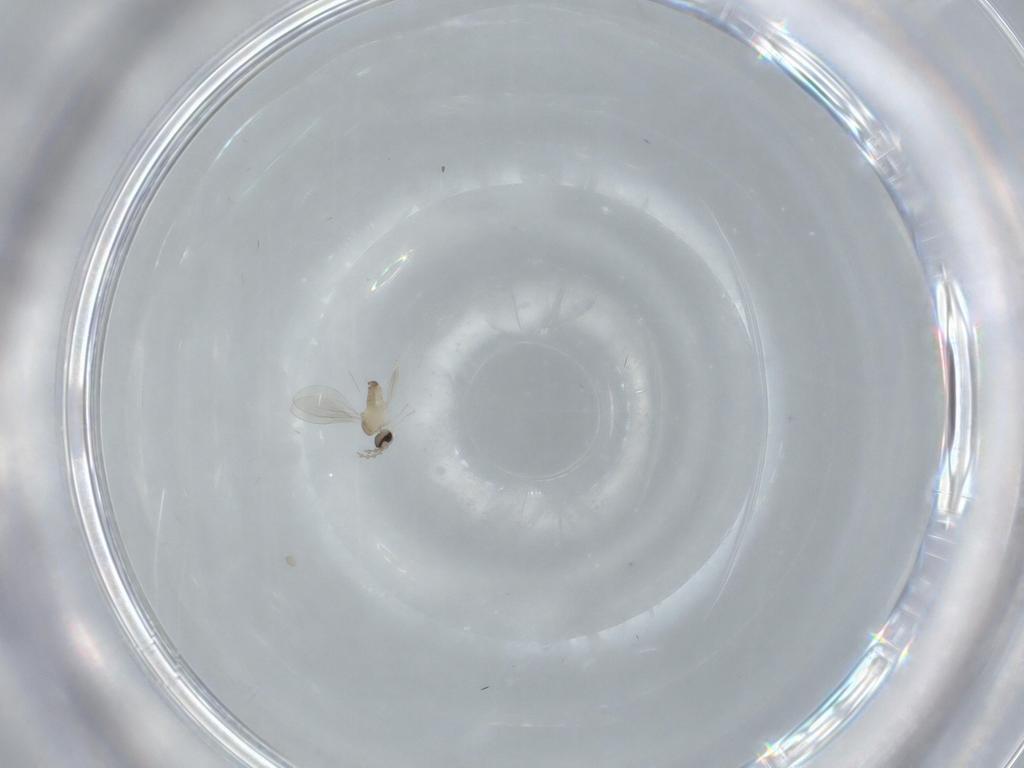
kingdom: Animalia
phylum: Arthropoda
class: Insecta
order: Diptera
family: Cecidomyiidae
